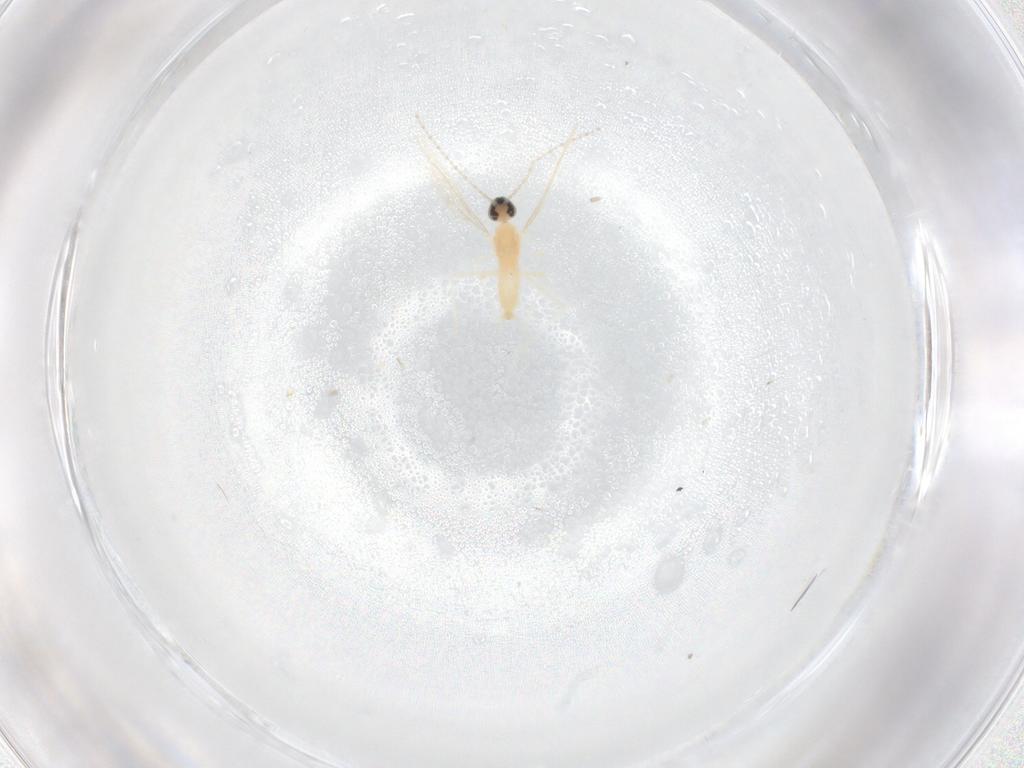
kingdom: Animalia
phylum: Arthropoda
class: Insecta
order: Diptera
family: Cecidomyiidae
